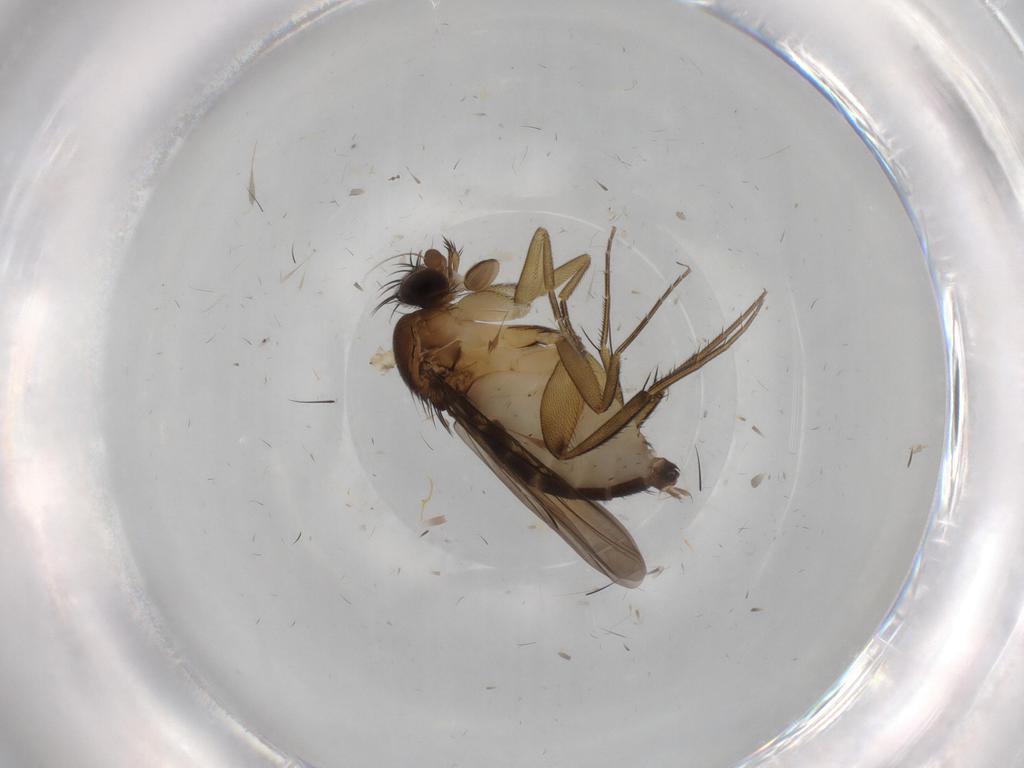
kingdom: Animalia
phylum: Arthropoda
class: Insecta
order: Diptera
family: Phoridae
